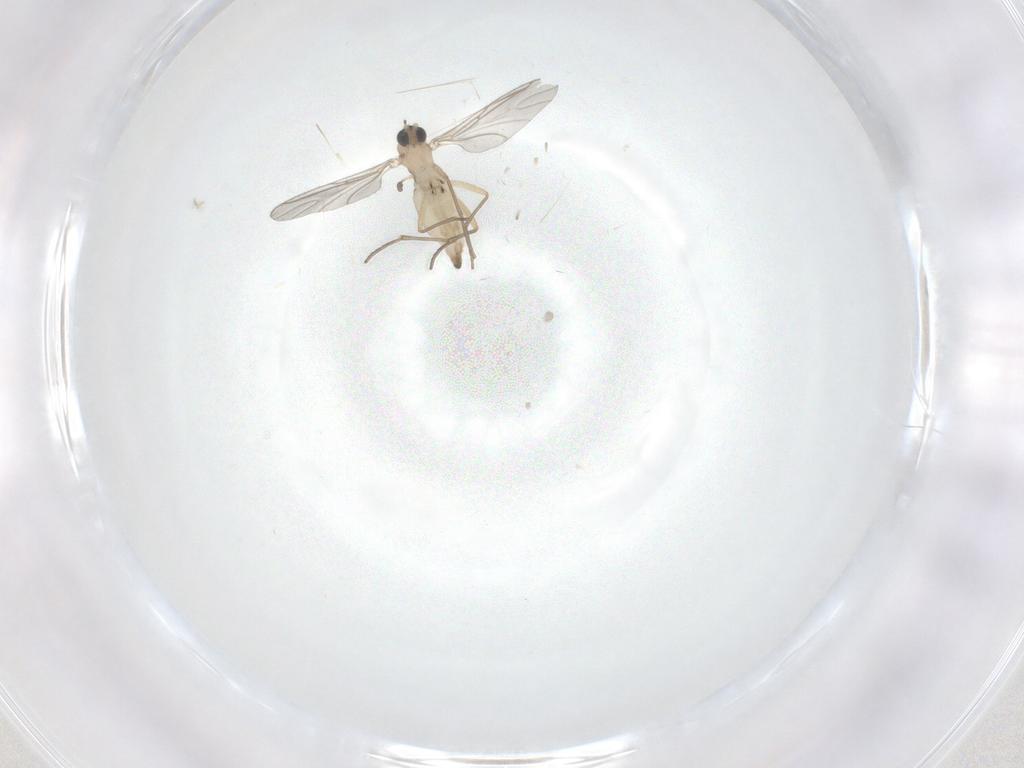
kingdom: Animalia
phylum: Arthropoda
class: Insecta
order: Diptera
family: Sciaridae
